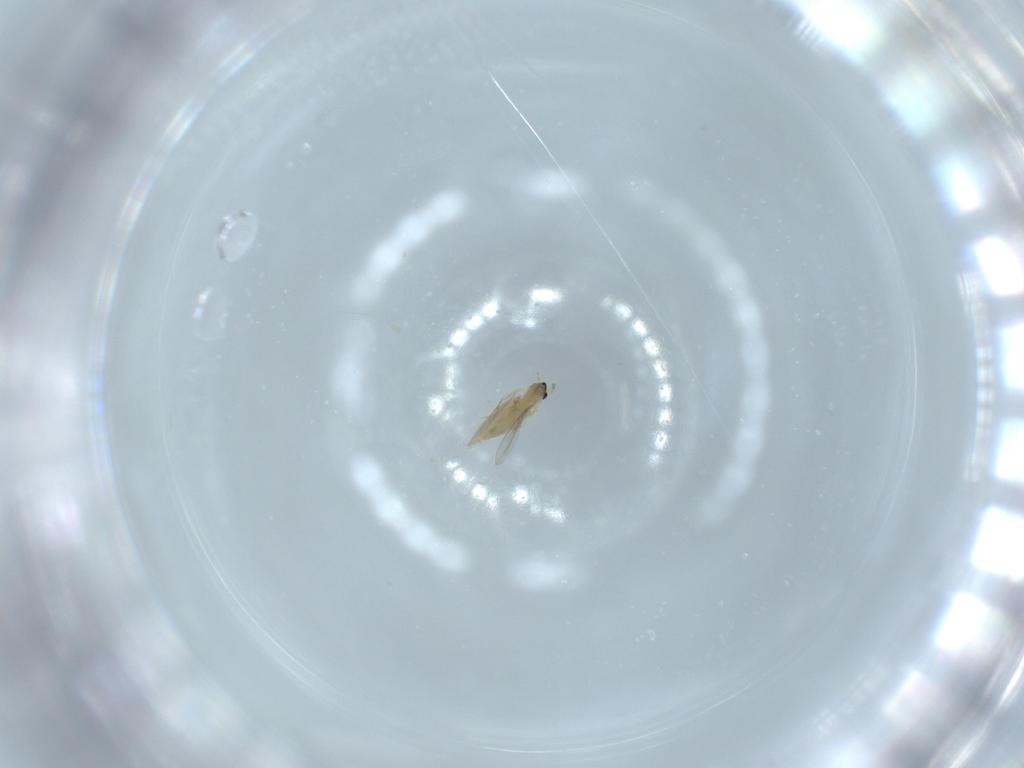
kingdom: Animalia
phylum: Arthropoda
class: Insecta
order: Diptera
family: Cecidomyiidae
